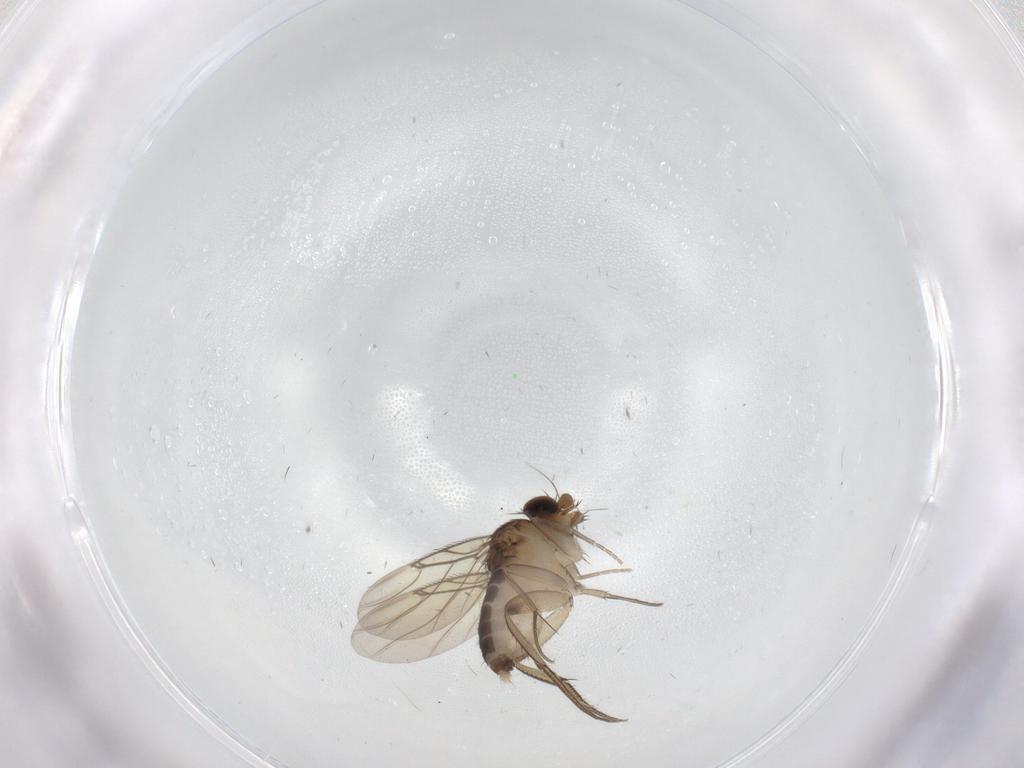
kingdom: Animalia
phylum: Arthropoda
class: Insecta
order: Diptera
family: Phoridae
